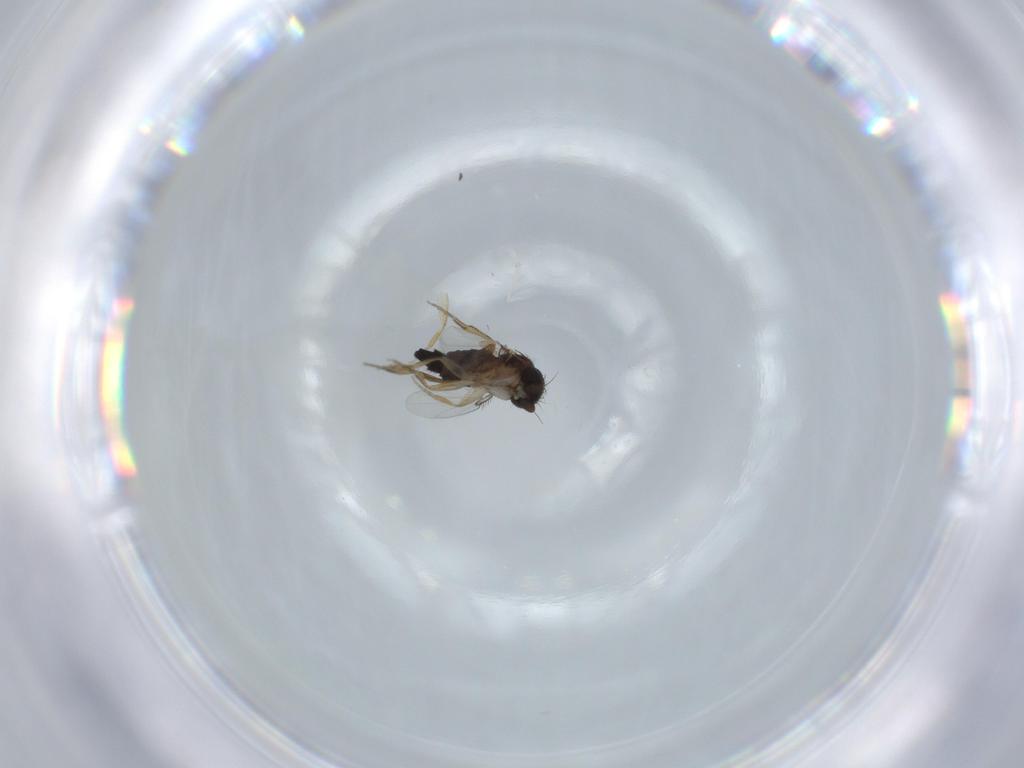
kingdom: Animalia
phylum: Arthropoda
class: Insecta
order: Diptera
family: Phoridae
